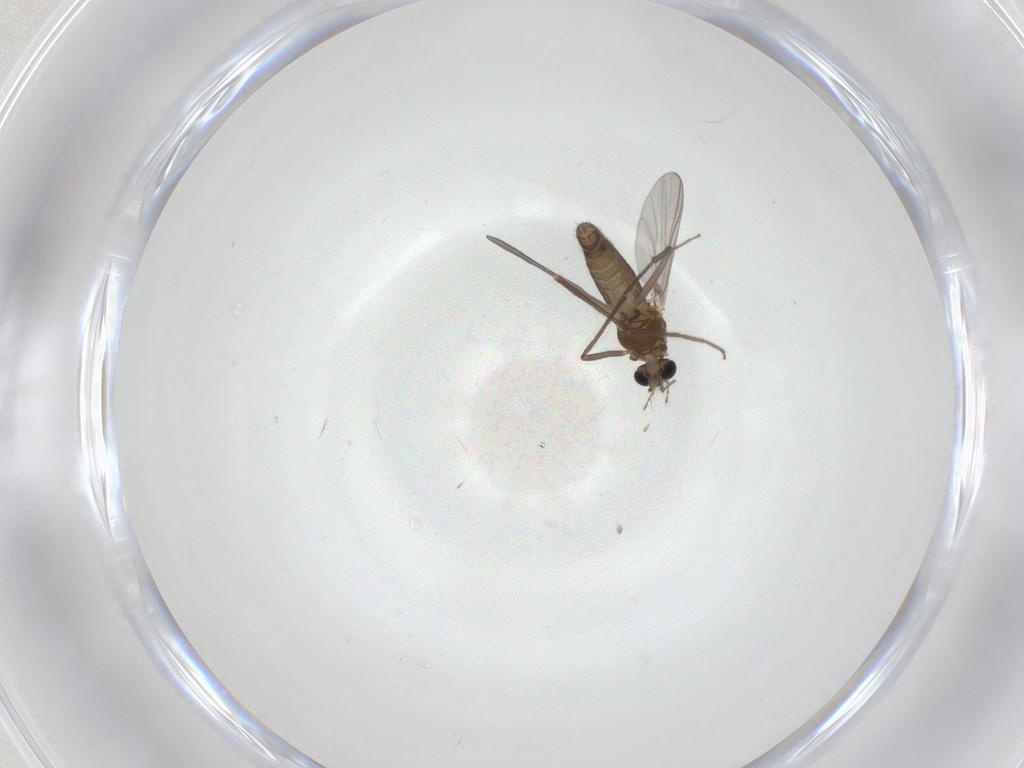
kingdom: Animalia
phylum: Arthropoda
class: Insecta
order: Diptera
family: Chironomidae
